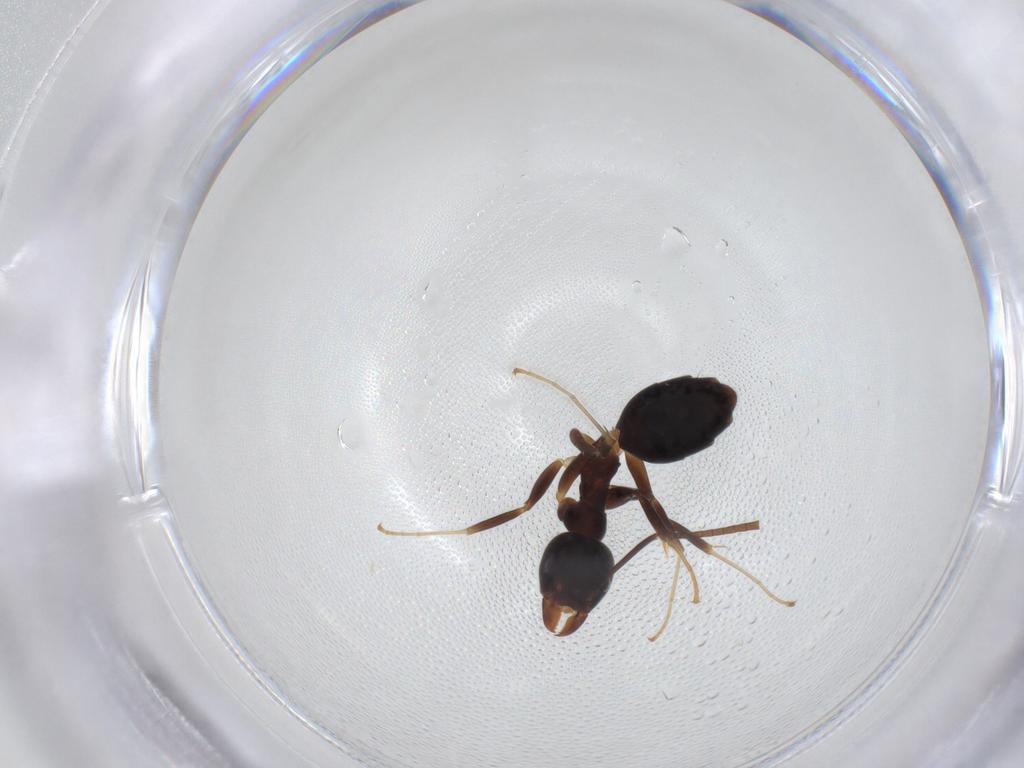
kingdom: Animalia
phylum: Arthropoda
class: Insecta
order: Hymenoptera
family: Formicidae
